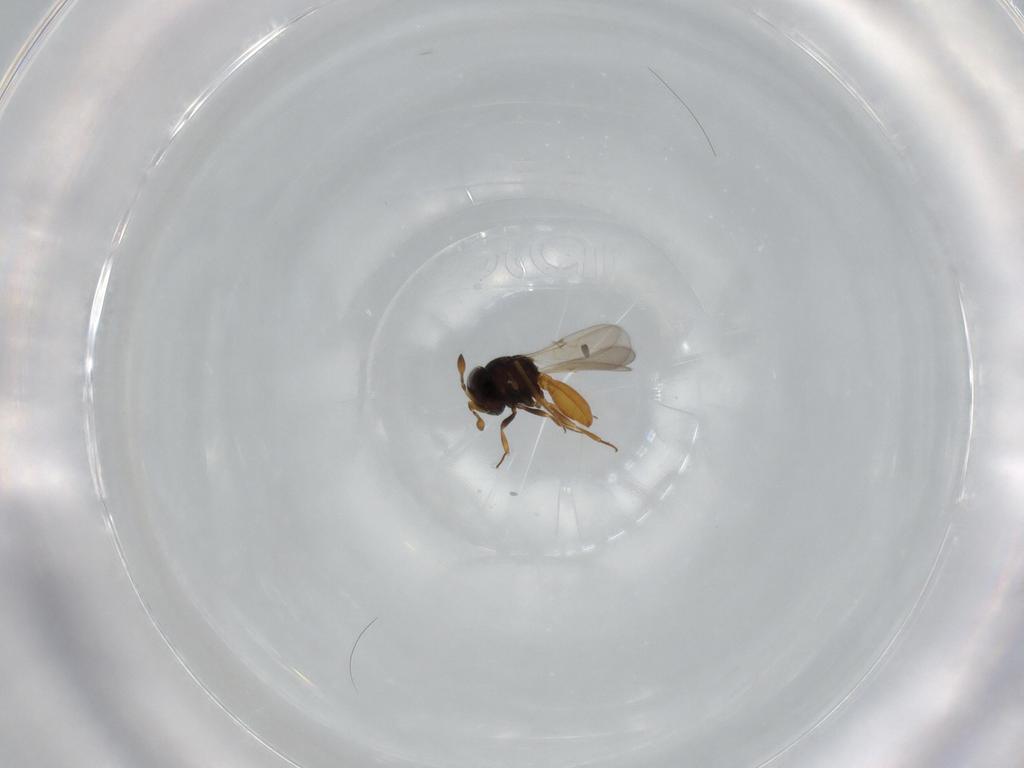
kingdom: Animalia
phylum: Arthropoda
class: Insecta
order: Hymenoptera
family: Scelionidae
